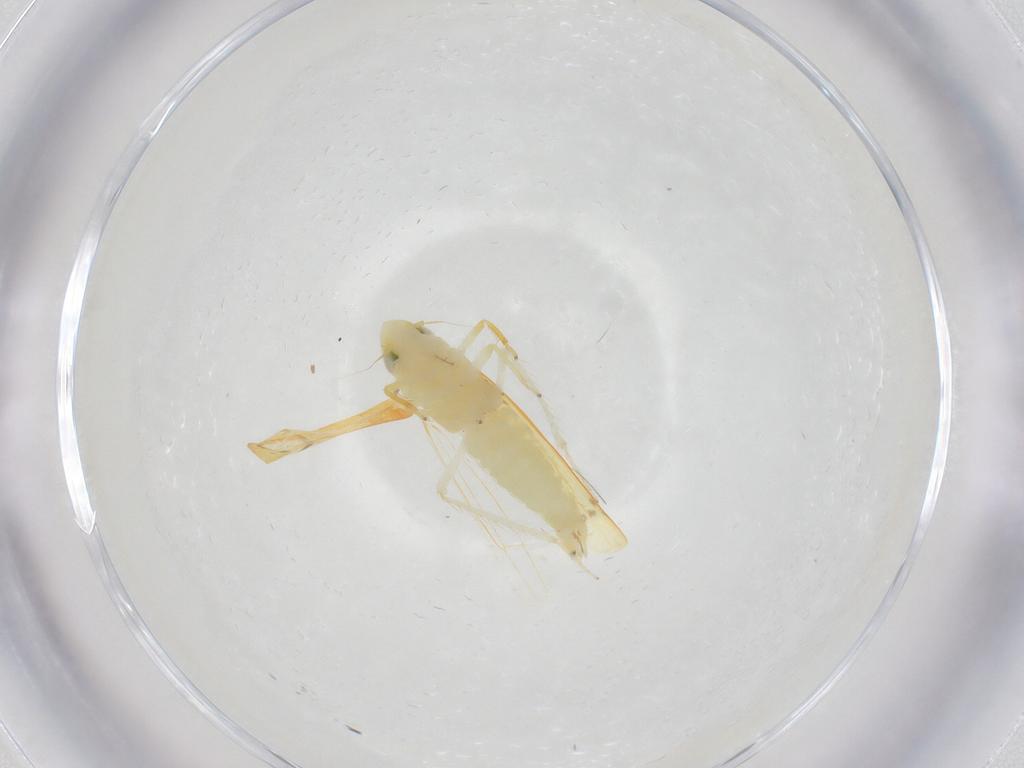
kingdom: Animalia
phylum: Arthropoda
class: Insecta
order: Hemiptera
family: Cicadellidae
